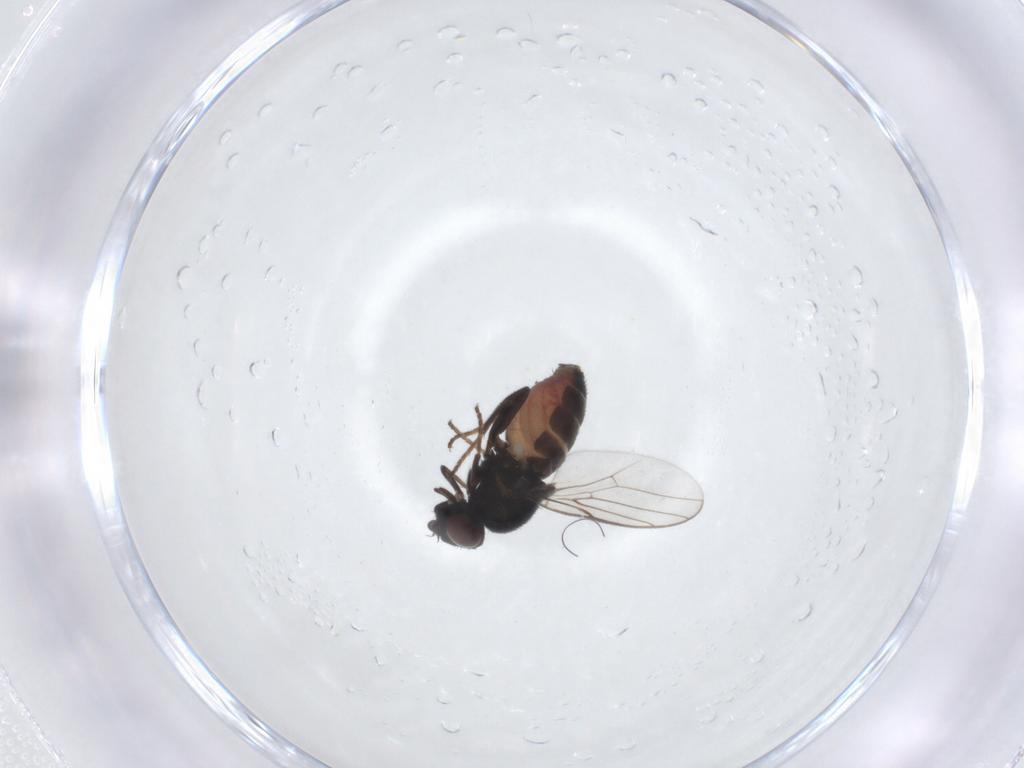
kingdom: Animalia
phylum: Arthropoda
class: Insecta
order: Diptera
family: Chloropidae
